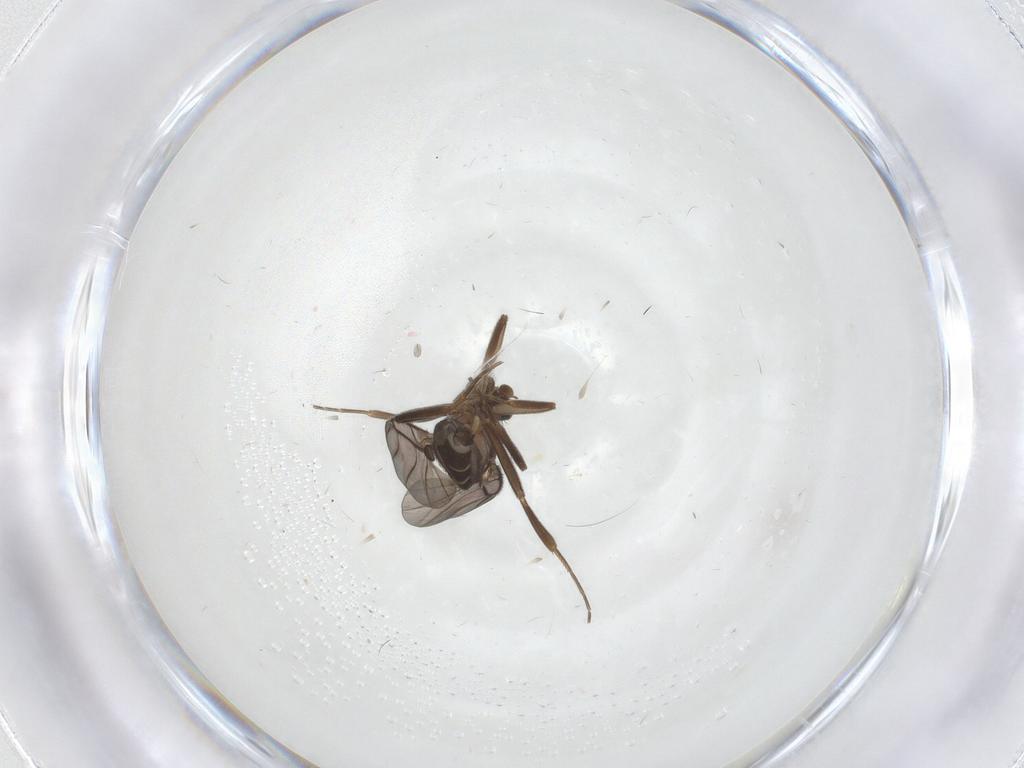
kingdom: Animalia
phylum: Arthropoda
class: Insecta
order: Diptera
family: Phoridae
